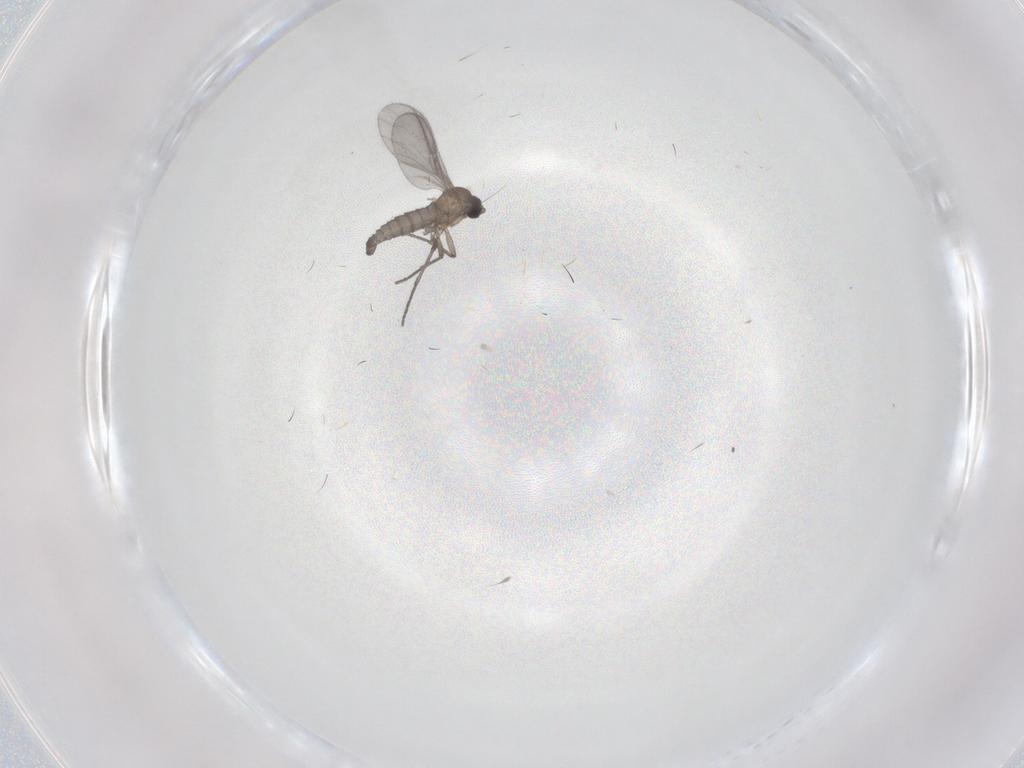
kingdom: Animalia
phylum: Arthropoda
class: Insecta
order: Diptera
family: Sciaridae
